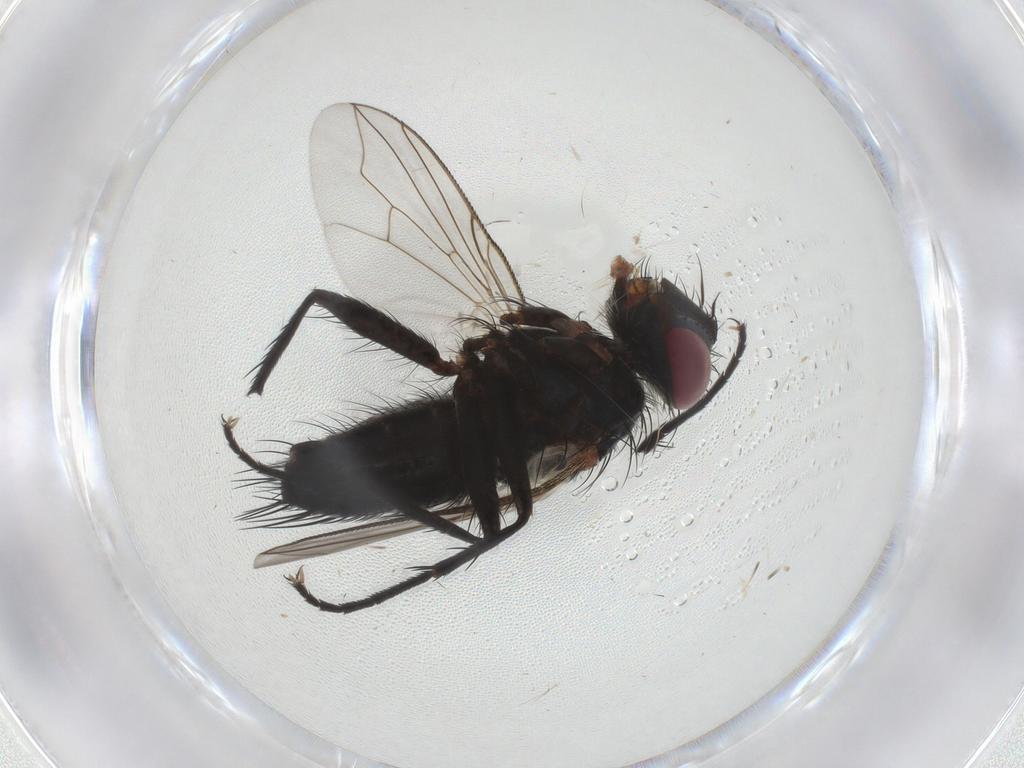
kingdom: Animalia
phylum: Arthropoda
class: Insecta
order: Diptera
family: Tachinidae
